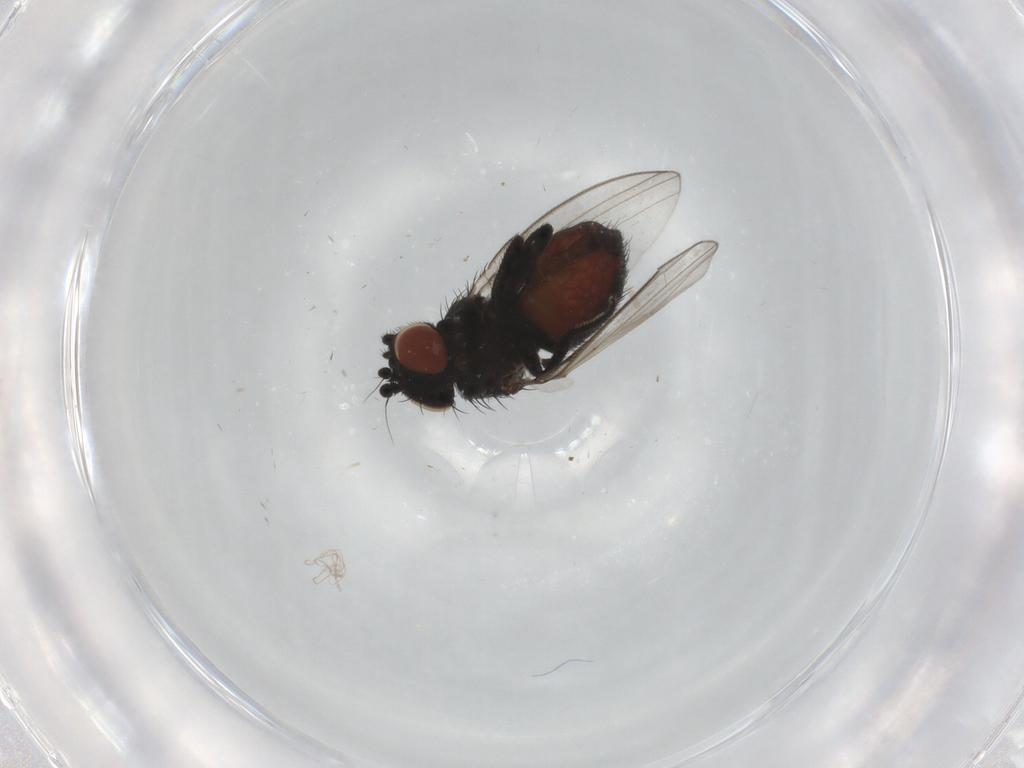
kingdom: Animalia
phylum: Arthropoda
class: Insecta
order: Diptera
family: Milichiidae
